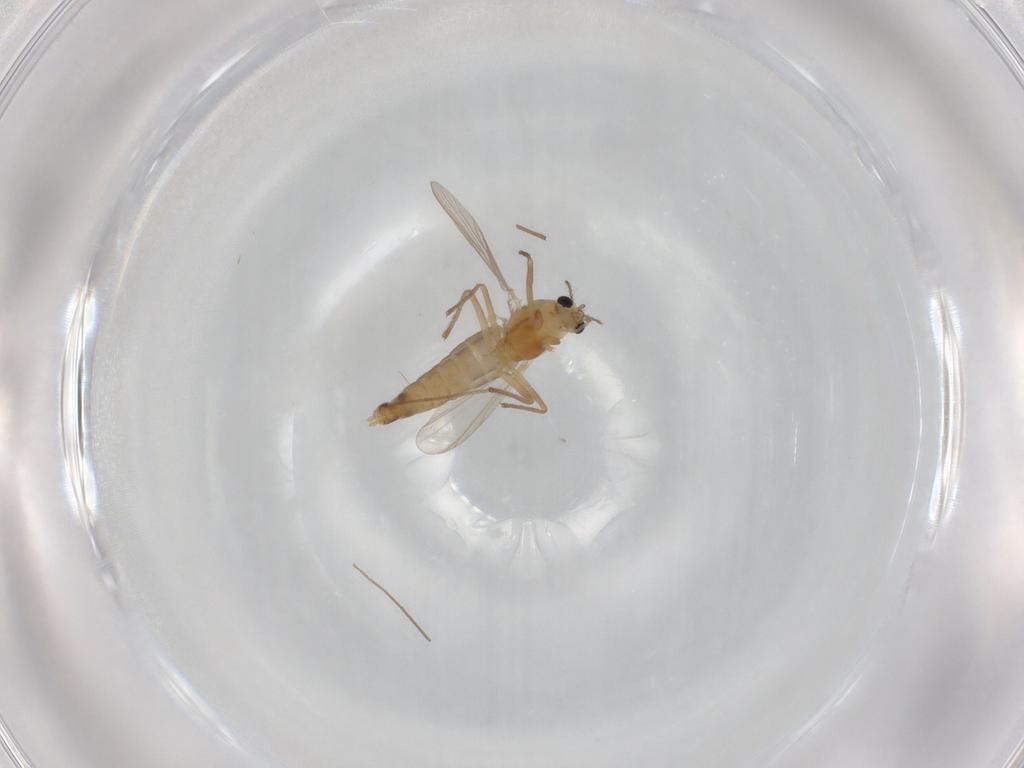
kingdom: Animalia
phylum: Arthropoda
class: Insecta
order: Diptera
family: Chironomidae
